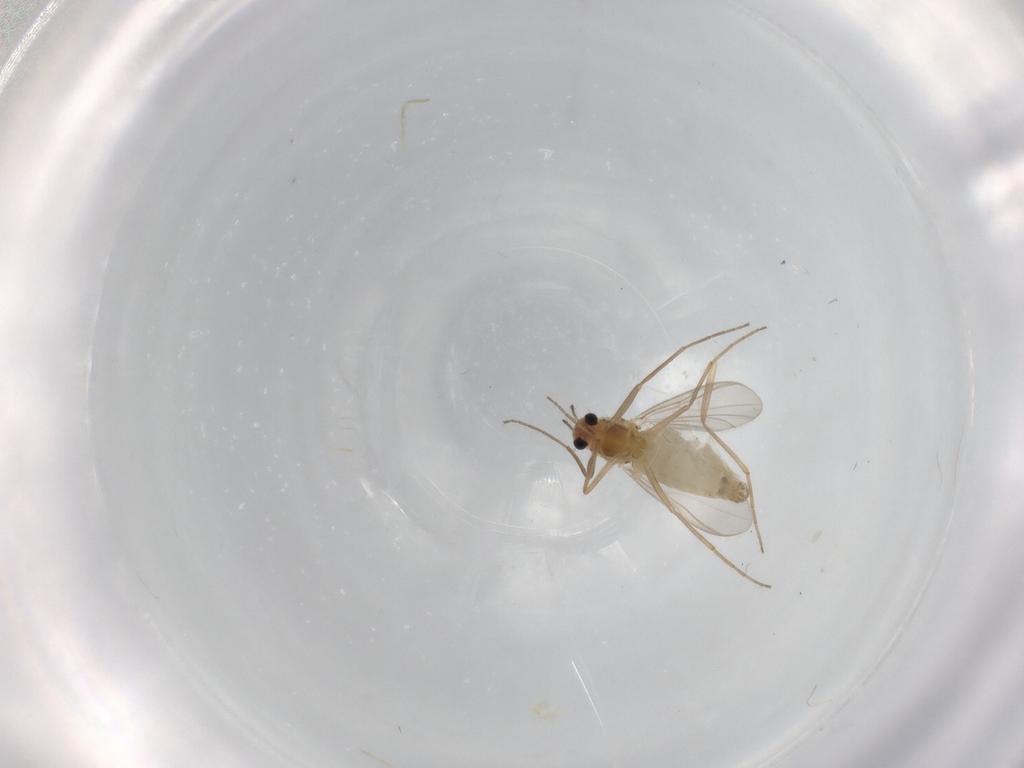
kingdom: Animalia
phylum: Arthropoda
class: Insecta
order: Diptera
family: Chironomidae
